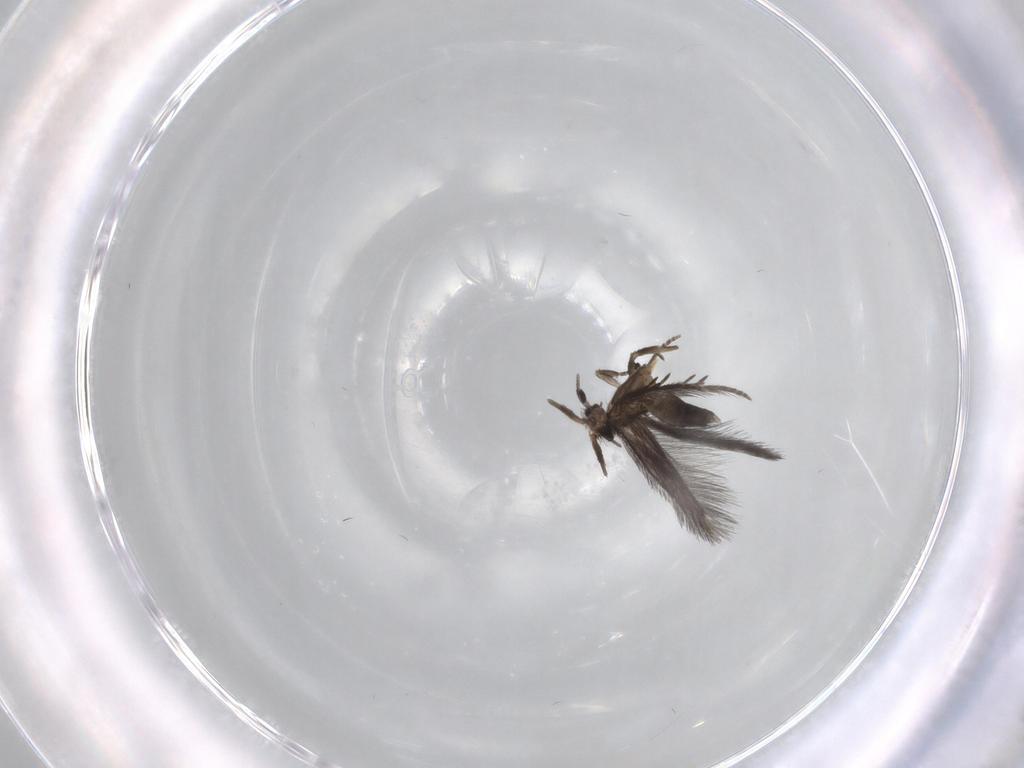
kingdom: Animalia
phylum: Arthropoda
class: Insecta
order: Trichoptera
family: Hydroptilidae
